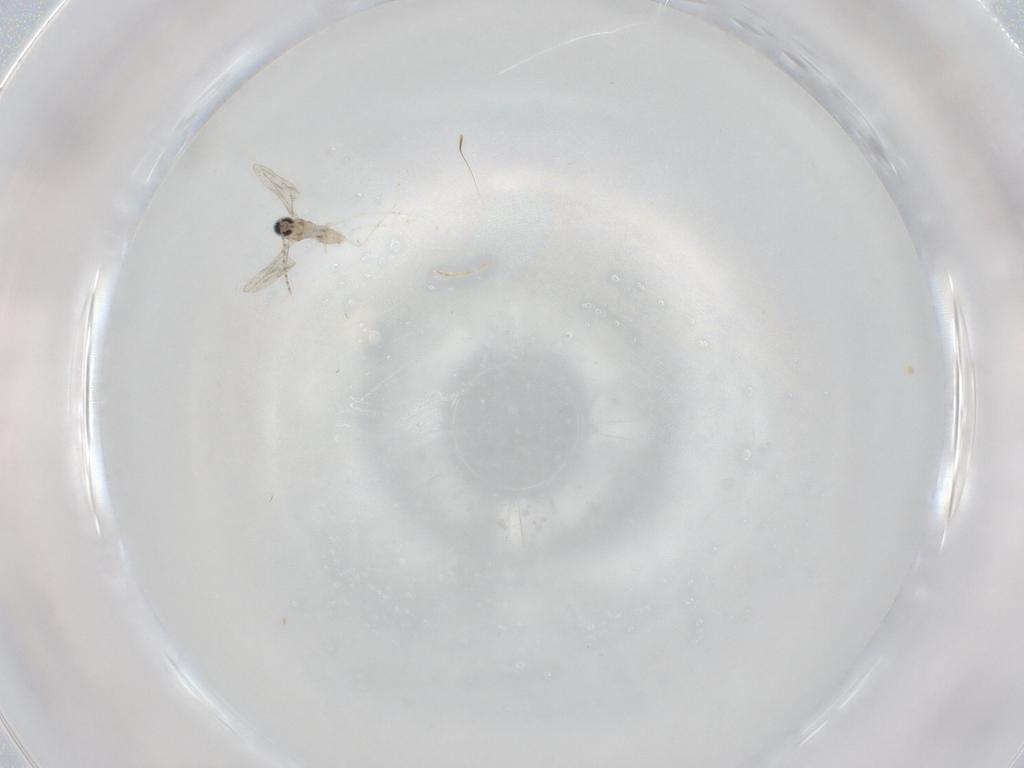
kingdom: Animalia
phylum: Arthropoda
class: Insecta
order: Diptera
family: Cecidomyiidae
